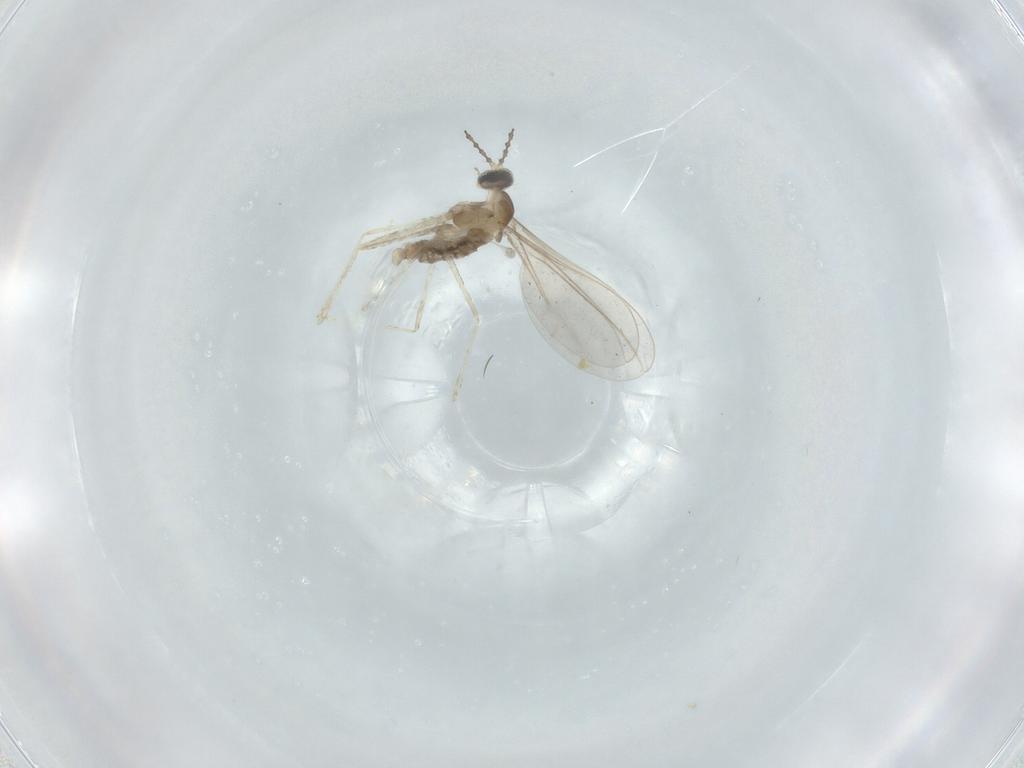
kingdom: Animalia
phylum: Arthropoda
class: Insecta
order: Diptera
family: Cecidomyiidae
